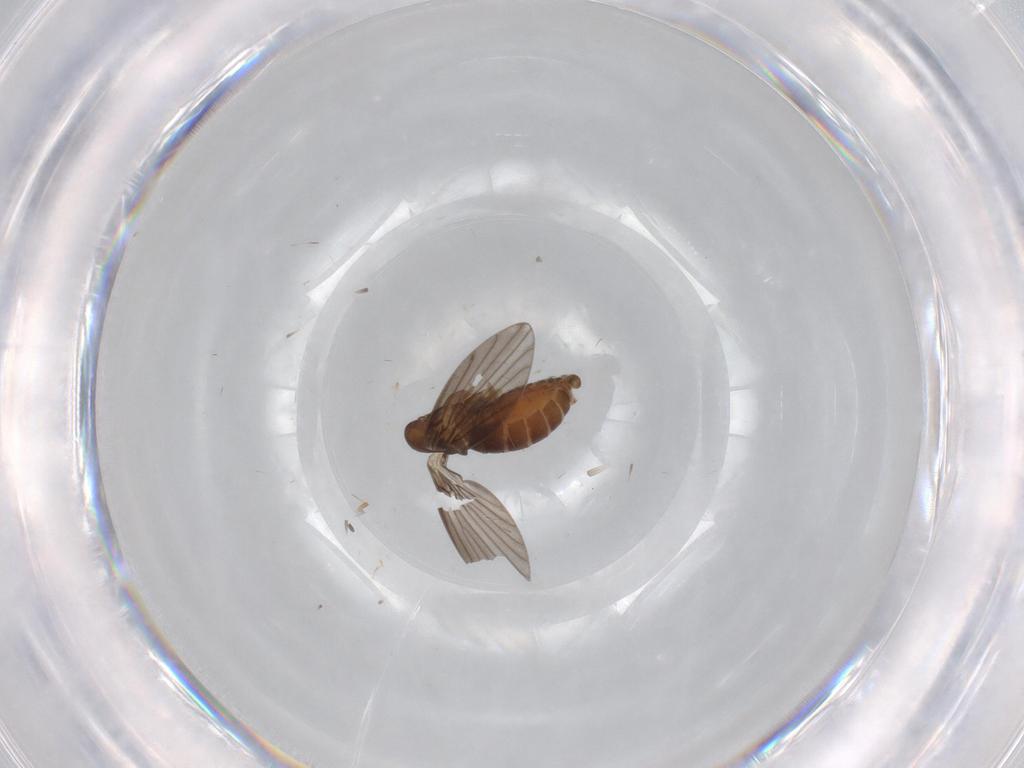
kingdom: Animalia
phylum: Arthropoda
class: Insecta
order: Diptera
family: Psychodidae
